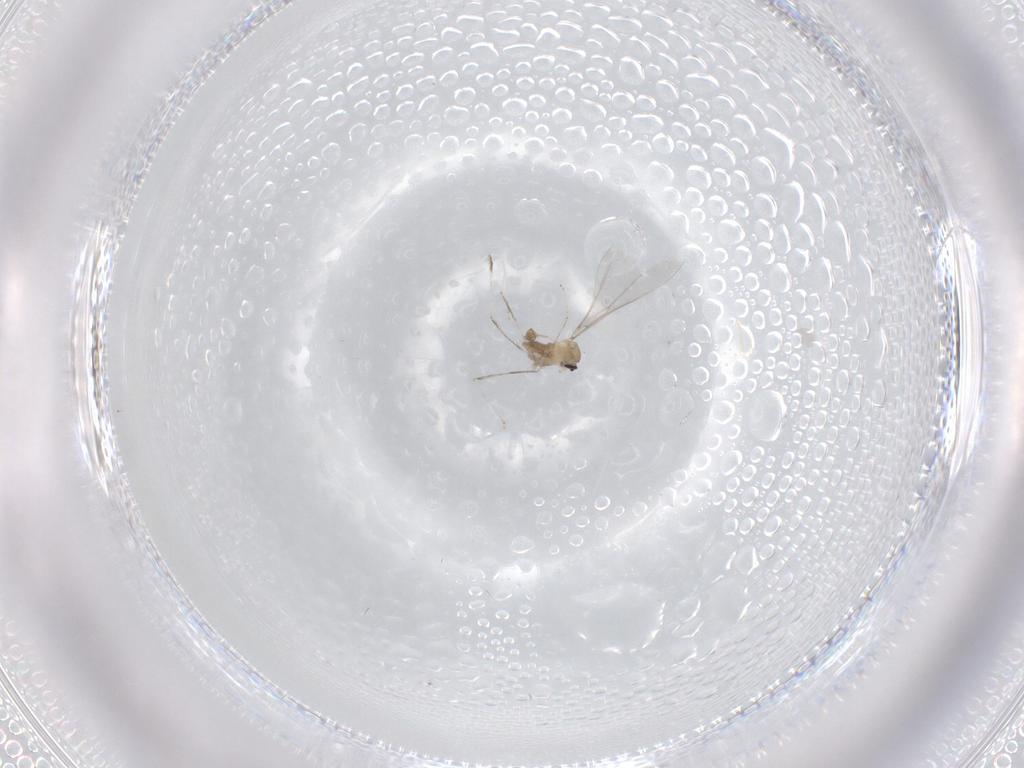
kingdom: Animalia
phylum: Arthropoda
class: Insecta
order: Diptera
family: Cecidomyiidae
